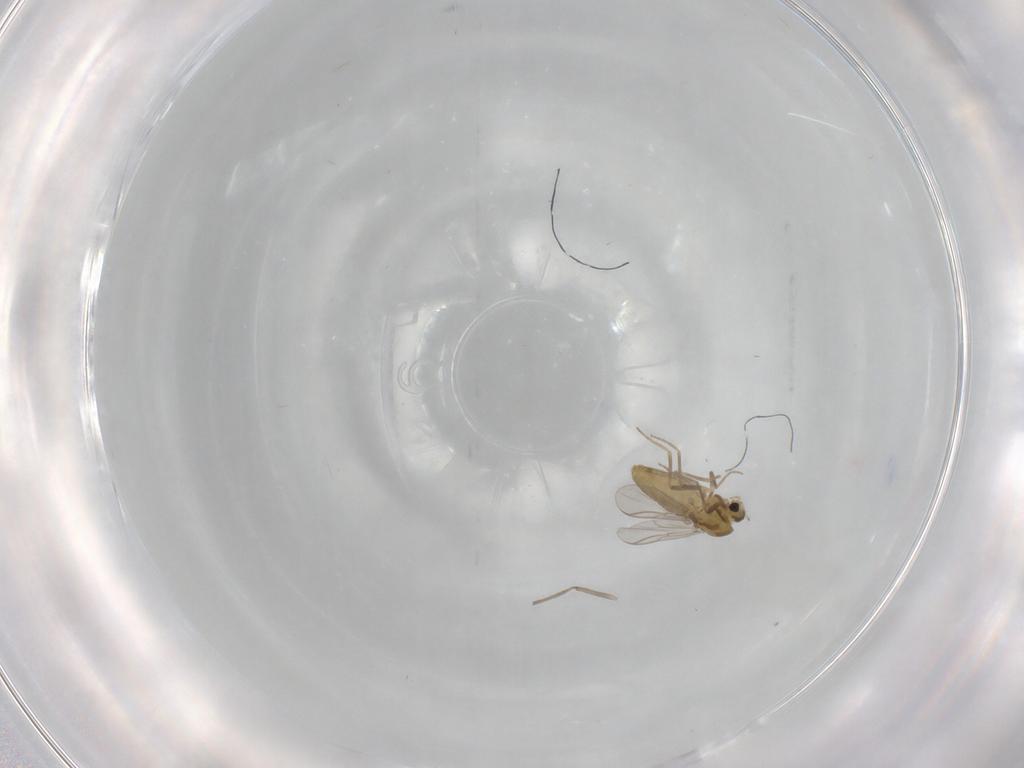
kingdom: Animalia
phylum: Arthropoda
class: Insecta
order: Diptera
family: Chironomidae
